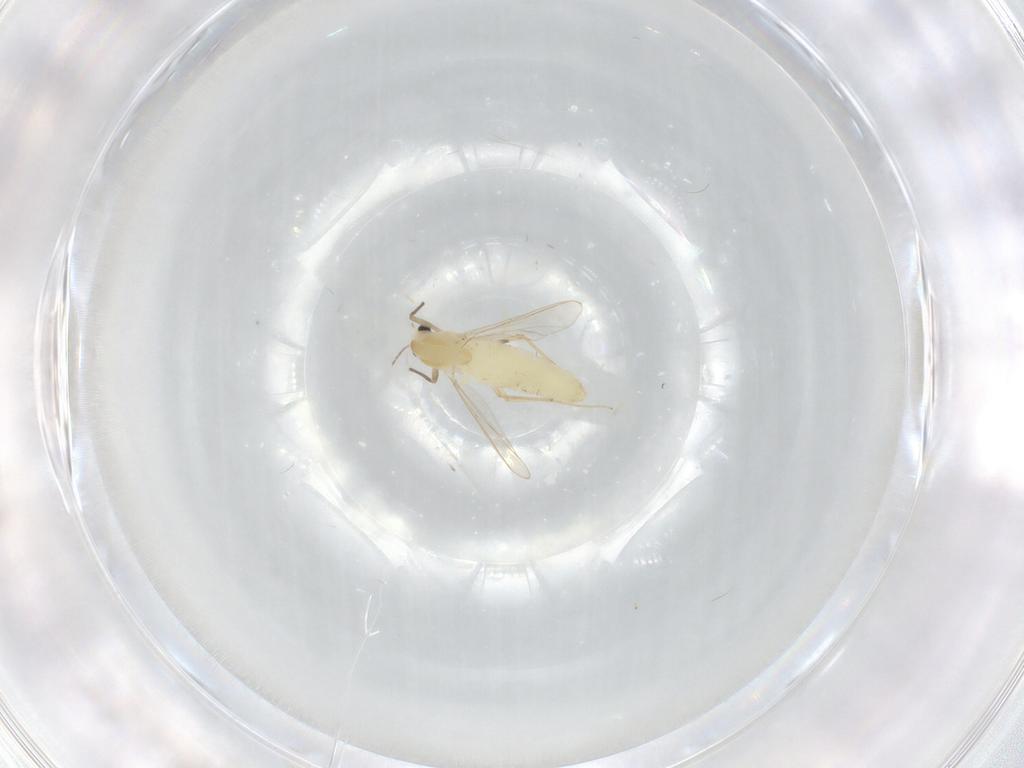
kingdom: Animalia
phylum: Arthropoda
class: Insecta
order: Diptera
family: Chironomidae
